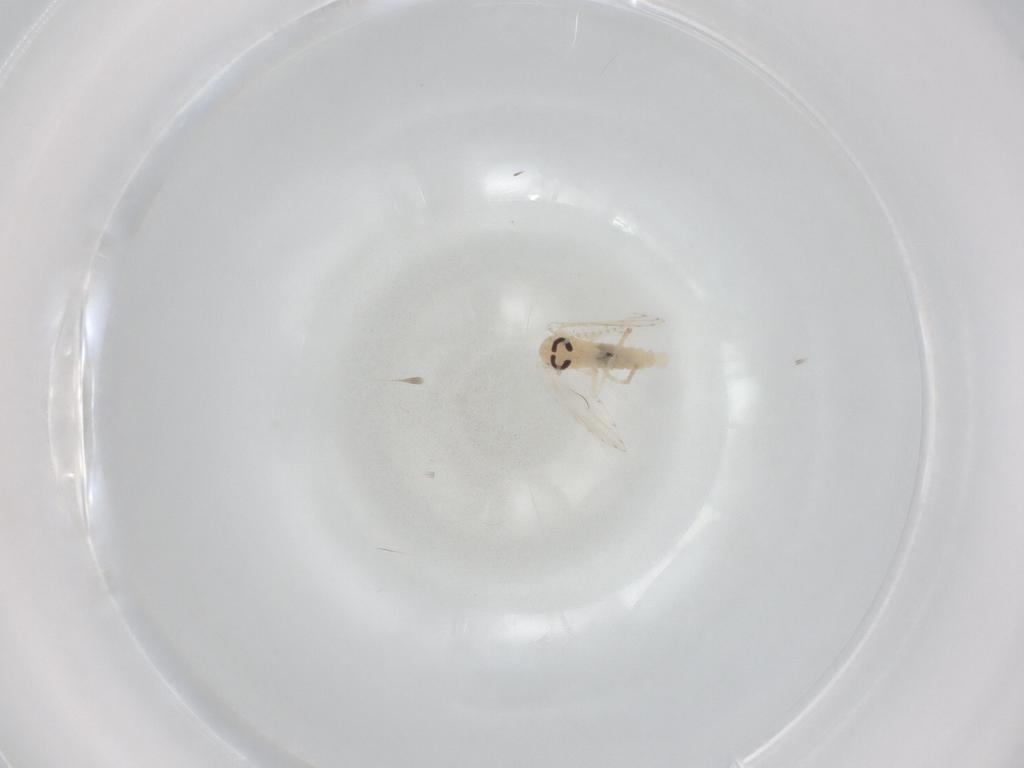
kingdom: Animalia
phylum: Arthropoda
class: Insecta
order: Diptera
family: Psychodidae
